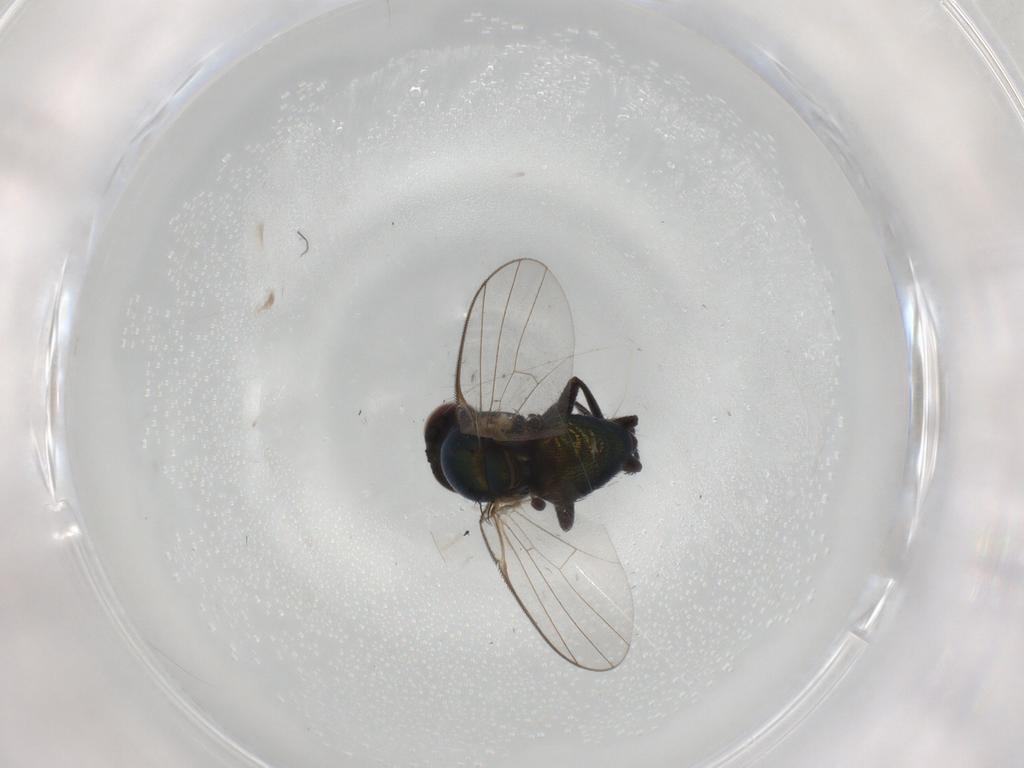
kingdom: Animalia
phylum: Arthropoda
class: Insecta
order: Diptera
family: Agromyzidae
